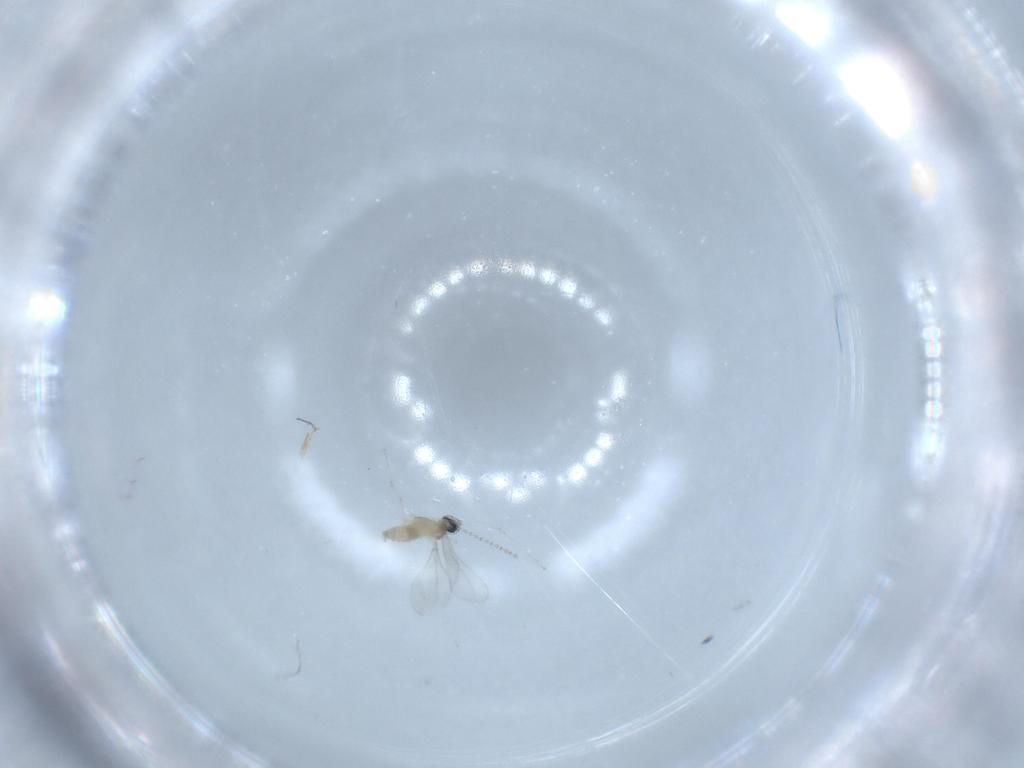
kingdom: Animalia
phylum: Arthropoda
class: Insecta
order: Diptera
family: Cecidomyiidae
